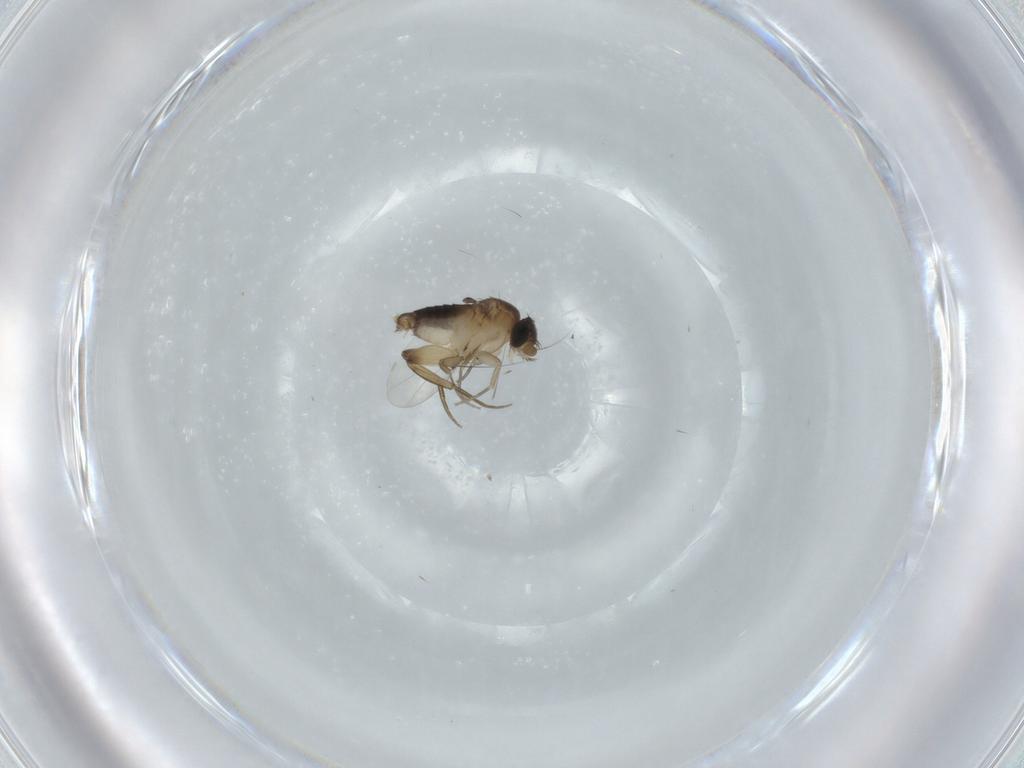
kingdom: Animalia
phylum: Arthropoda
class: Insecta
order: Diptera
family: Phoridae
